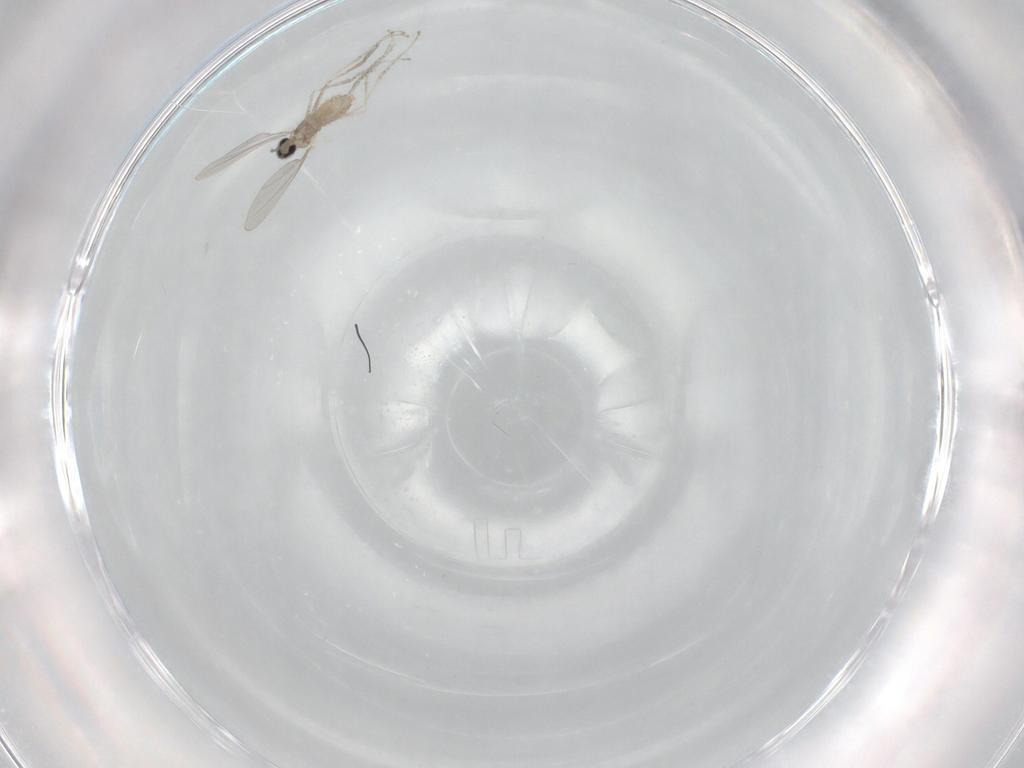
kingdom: Animalia
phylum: Arthropoda
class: Insecta
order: Diptera
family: Cecidomyiidae
